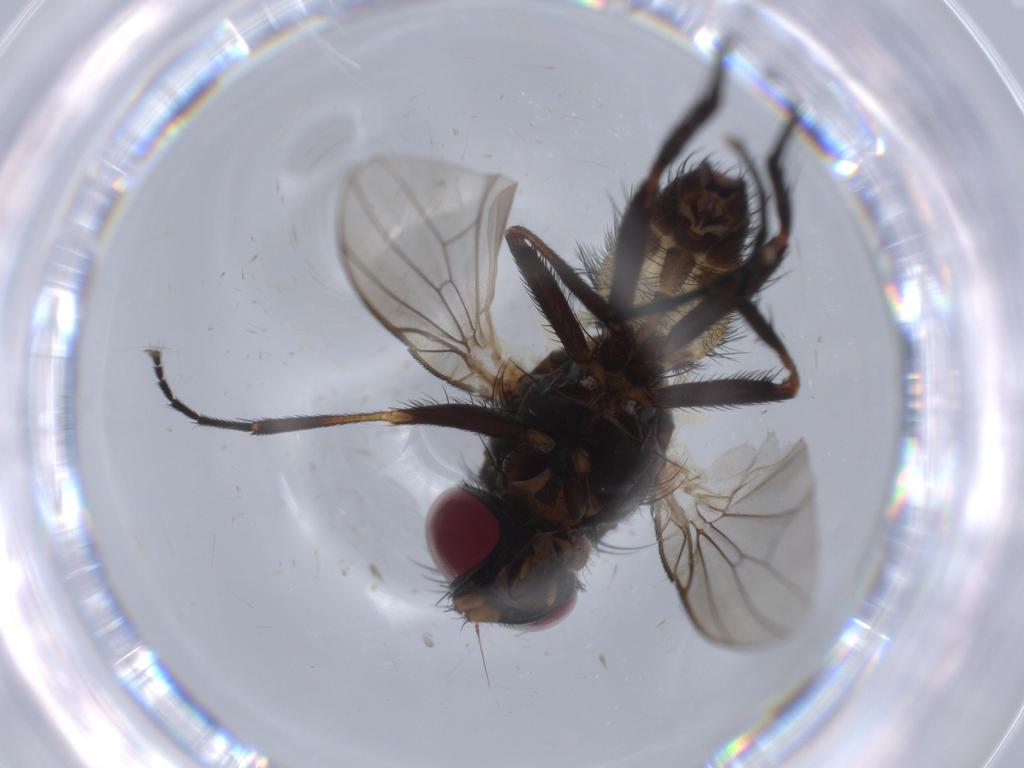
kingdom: Animalia
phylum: Arthropoda
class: Insecta
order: Diptera
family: Fannia
